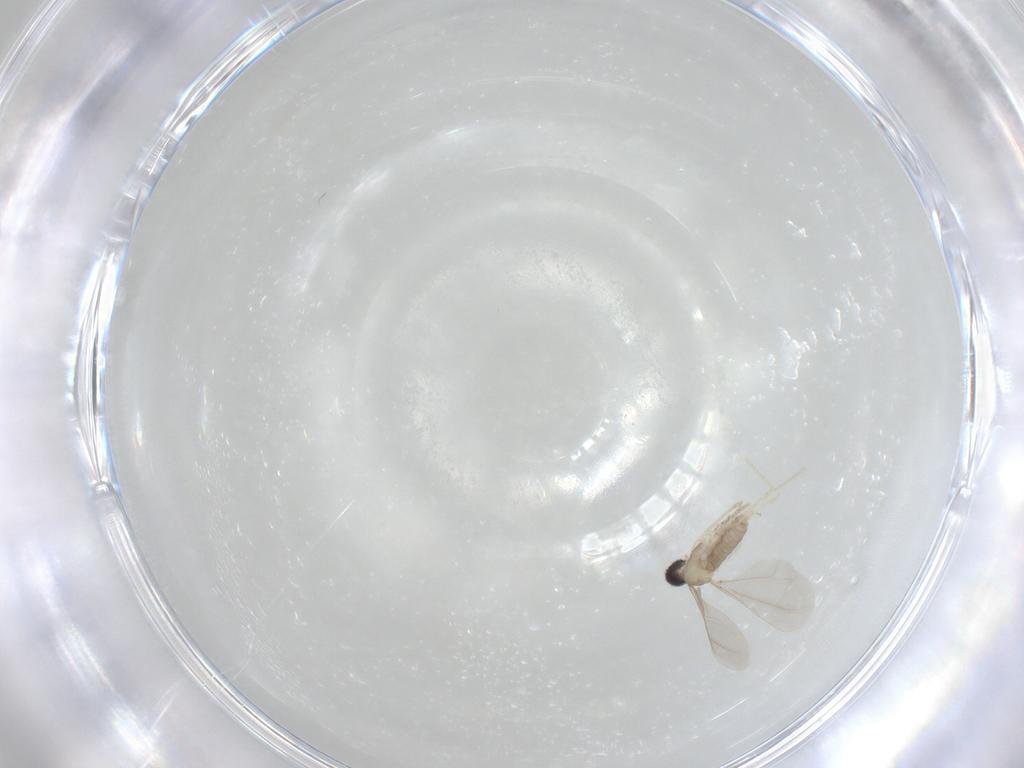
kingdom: Animalia
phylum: Arthropoda
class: Insecta
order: Diptera
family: Cecidomyiidae
